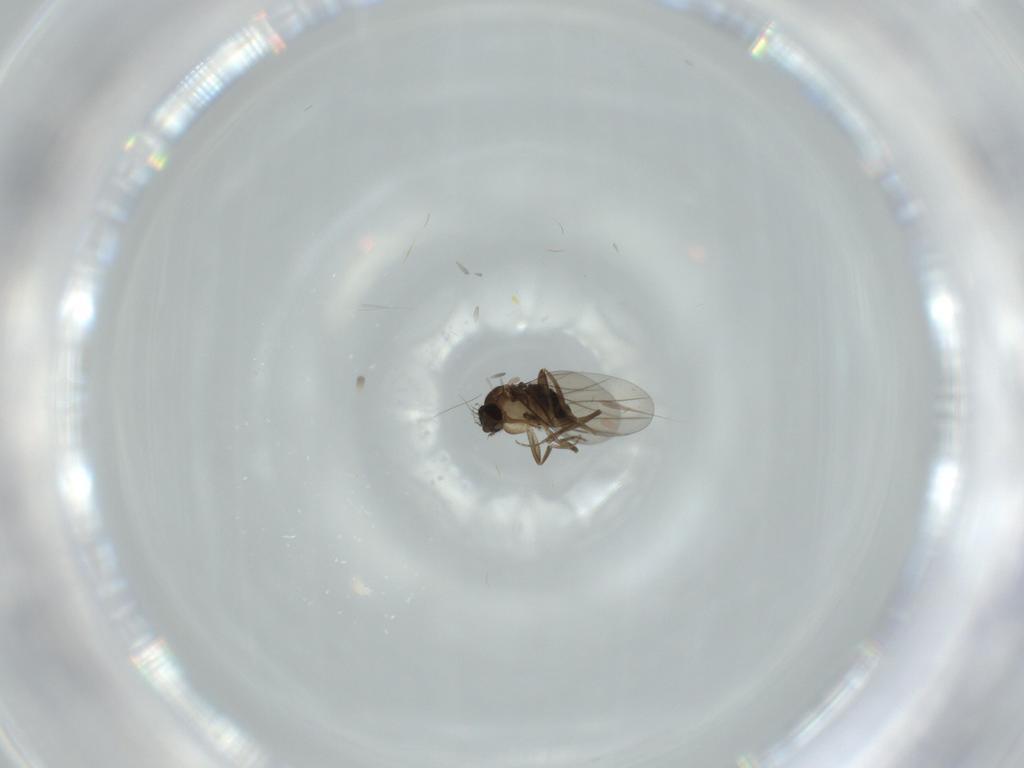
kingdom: Animalia
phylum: Arthropoda
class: Insecta
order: Diptera
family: Phoridae
